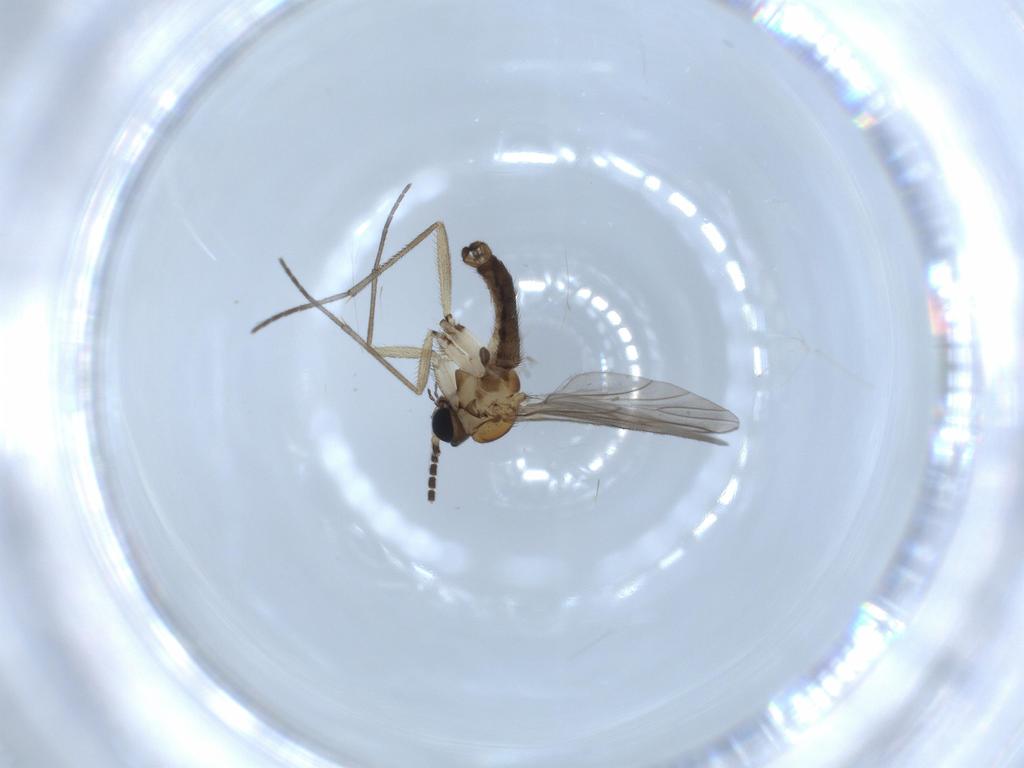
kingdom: Animalia
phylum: Arthropoda
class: Insecta
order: Diptera
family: Sciaridae
